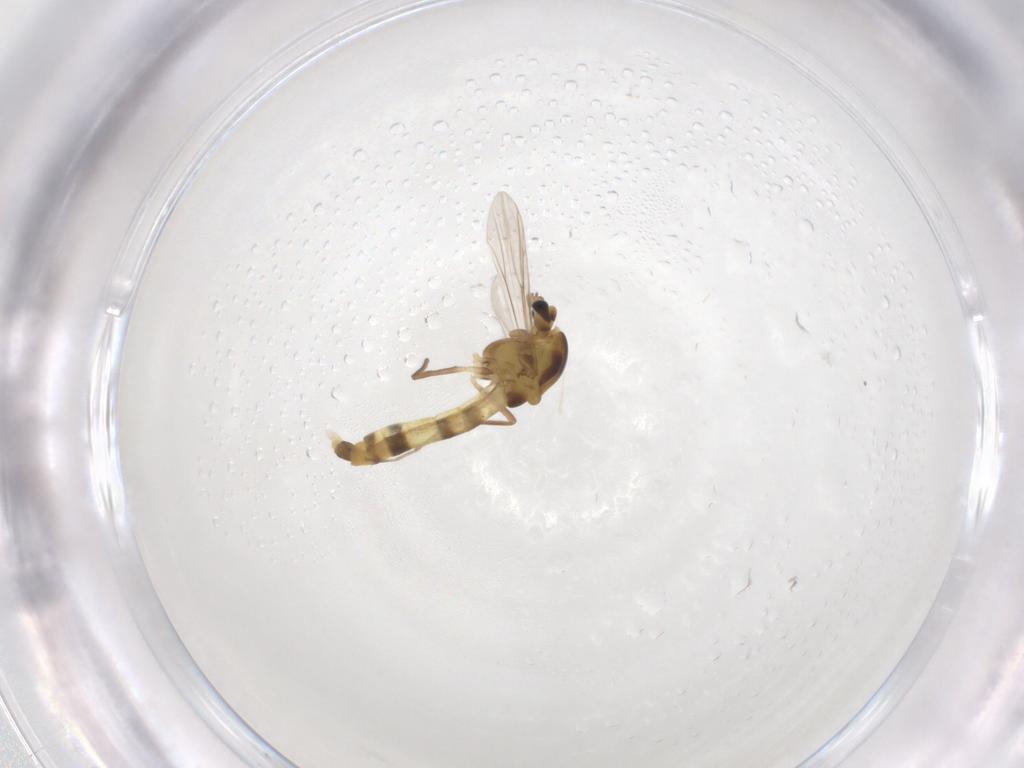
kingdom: Animalia
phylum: Arthropoda
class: Insecta
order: Diptera
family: Chironomidae
